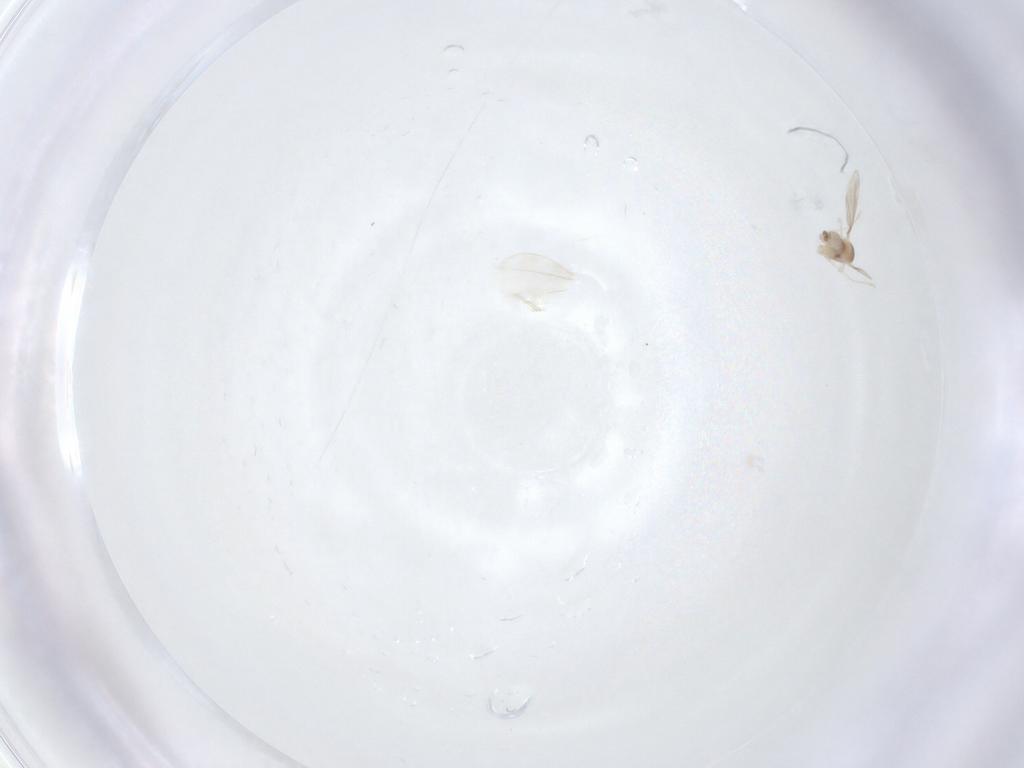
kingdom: Animalia
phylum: Arthropoda
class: Insecta
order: Diptera
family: Cecidomyiidae
